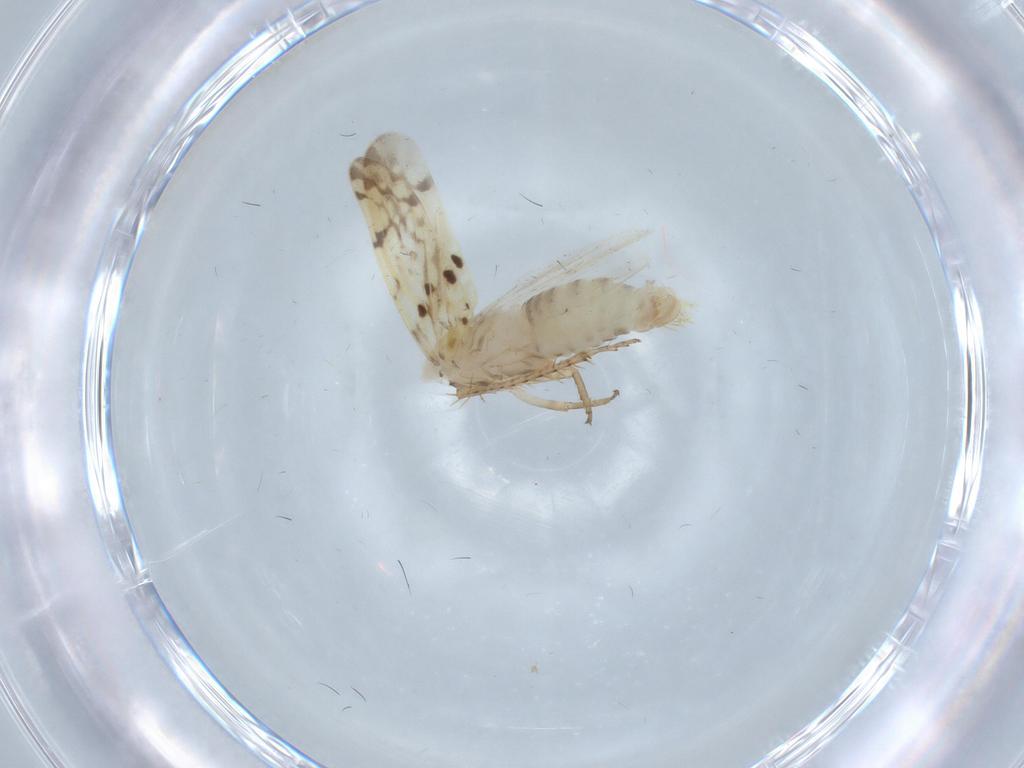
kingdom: Animalia
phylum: Arthropoda
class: Insecta
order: Hemiptera
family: Cicadellidae
